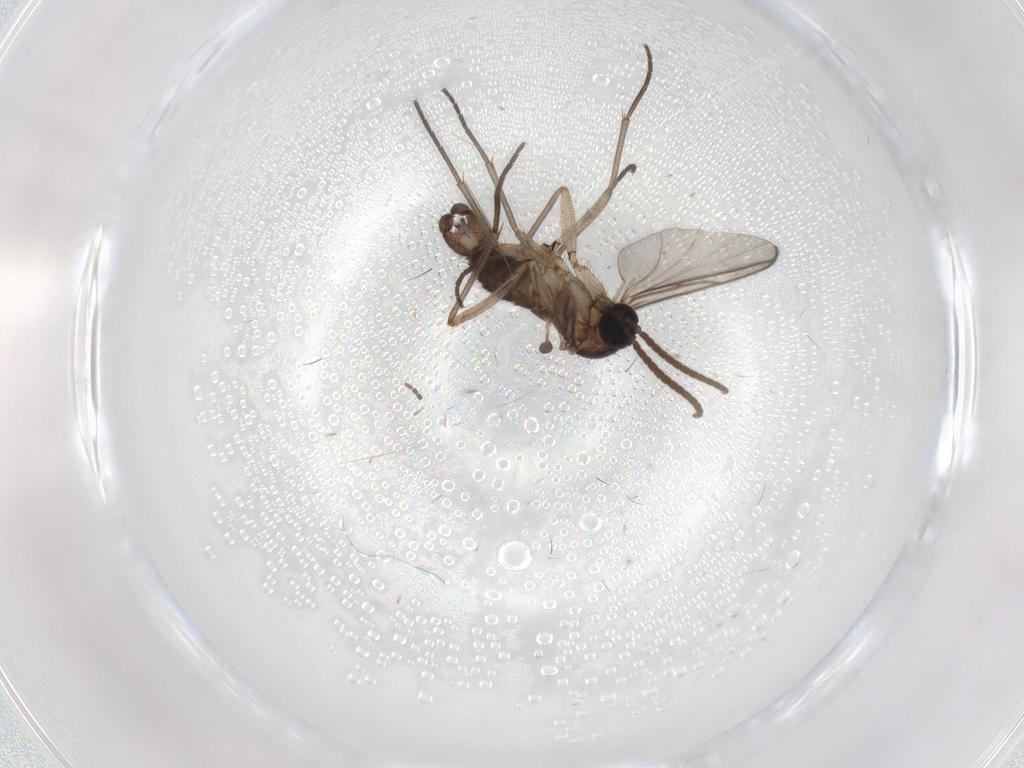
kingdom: Animalia
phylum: Arthropoda
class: Insecta
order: Diptera
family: Sciaridae
